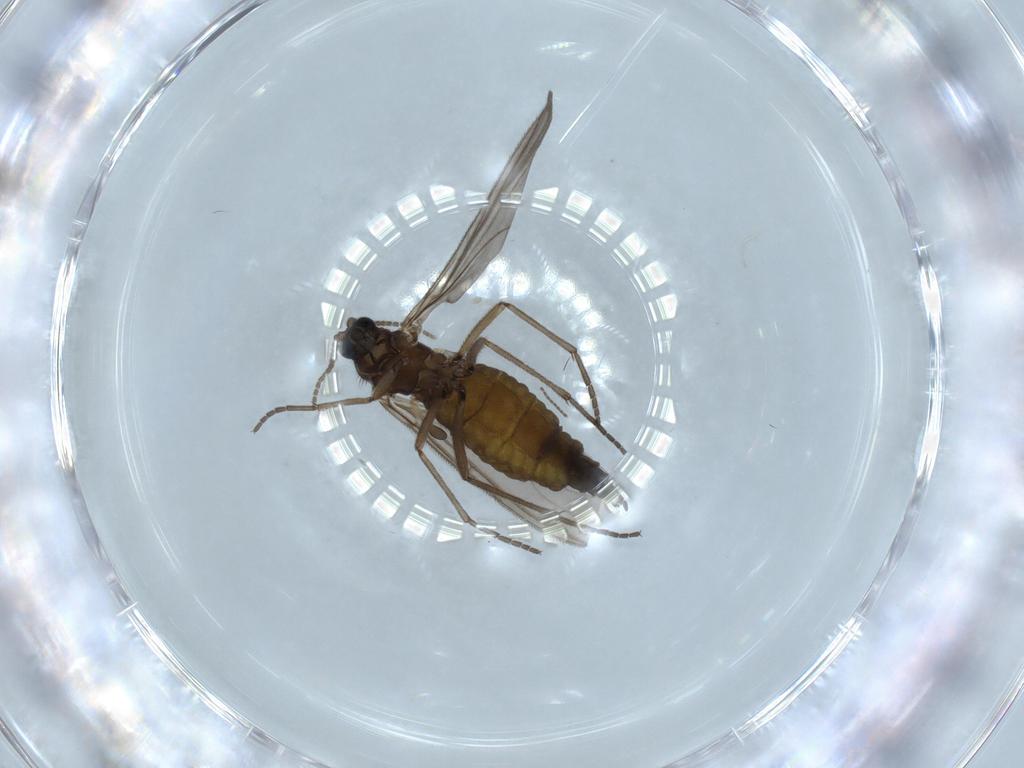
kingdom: Animalia
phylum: Arthropoda
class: Insecta
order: Diptera
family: Sciaridae
